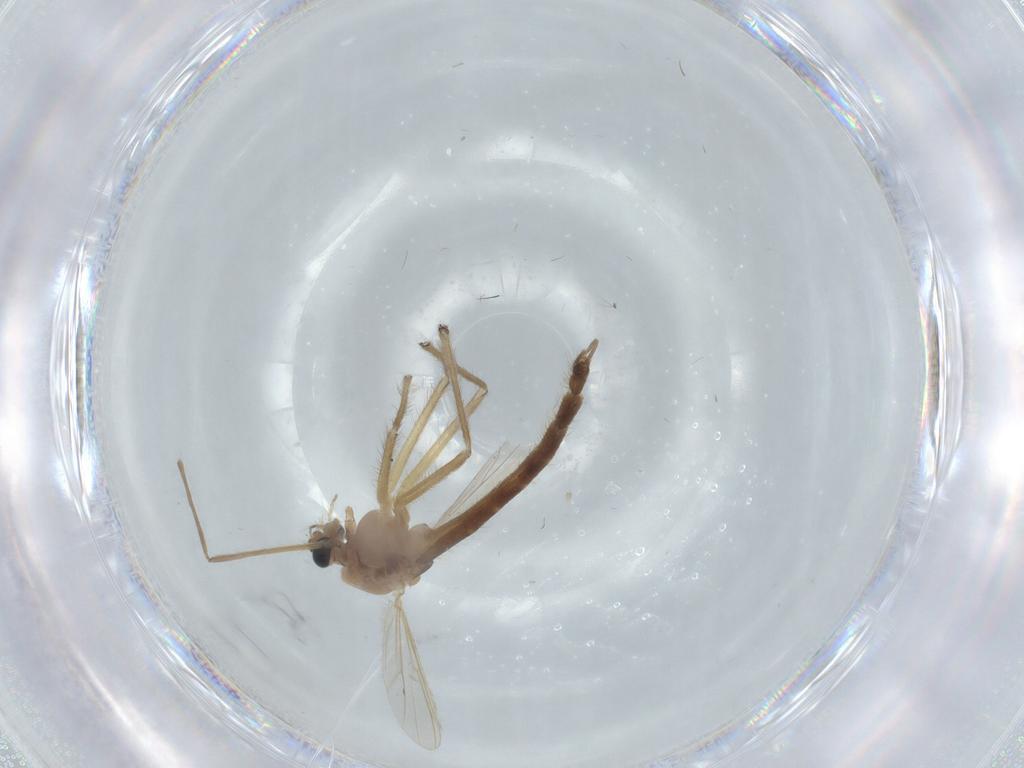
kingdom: Animalia
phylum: Arthropoda
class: Insecta
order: Diptera
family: Chironomidae
